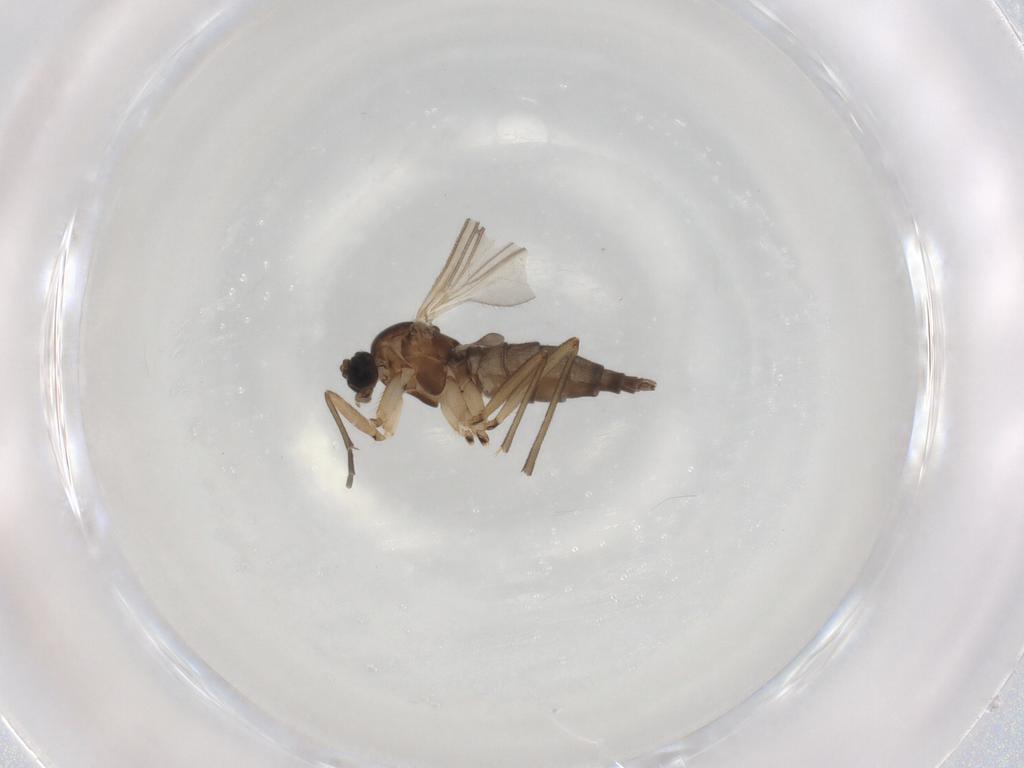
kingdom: Animalia
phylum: Arthropoda
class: Insecta
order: Diptera
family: Sciaridae
